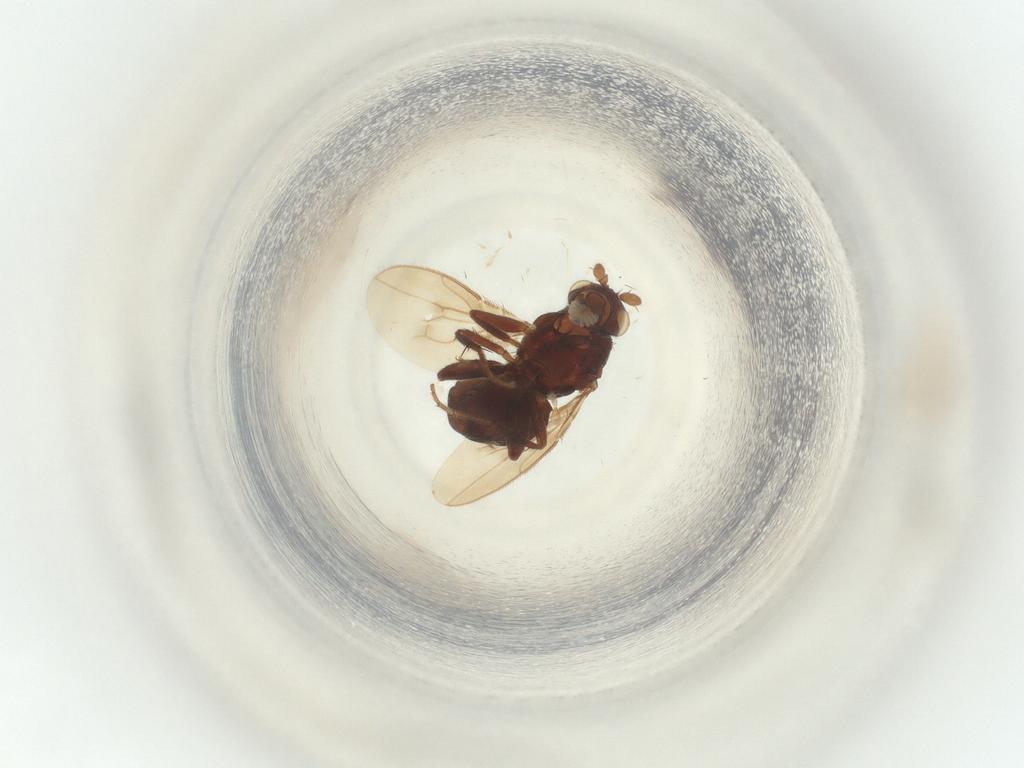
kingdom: Animalia
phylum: Arthropoda
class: Insecta
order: Diptera
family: Sphaeroceridae
